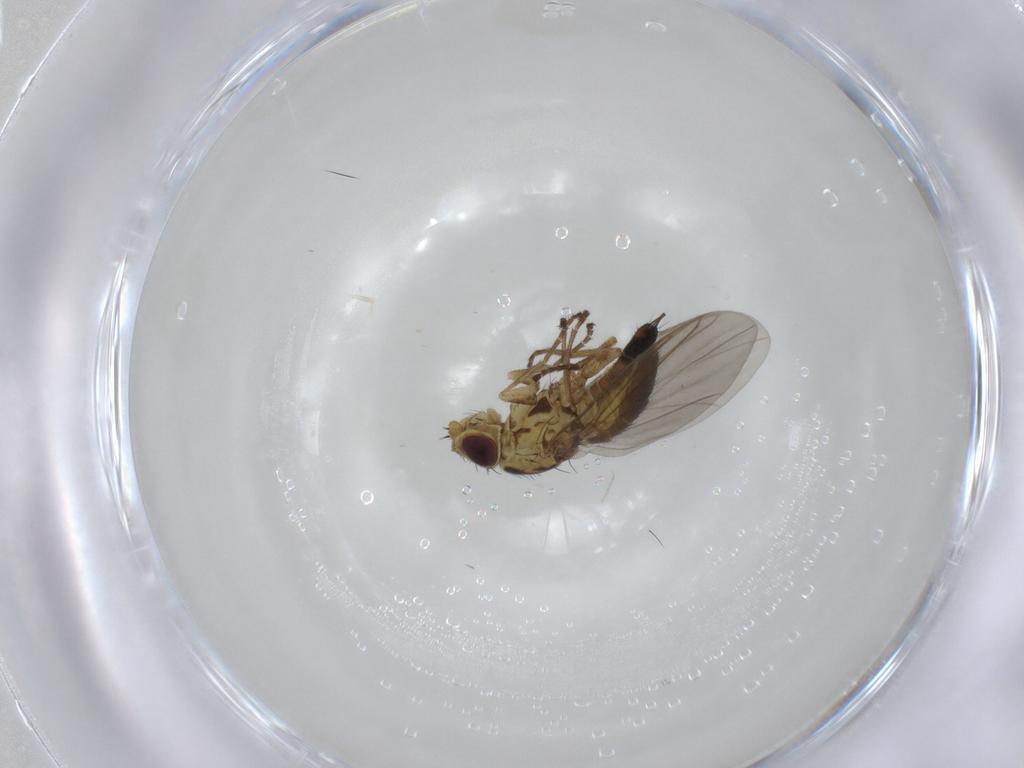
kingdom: Animalia
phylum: Arthropoda
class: Insecta
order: Diptera
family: Agromyzidae
